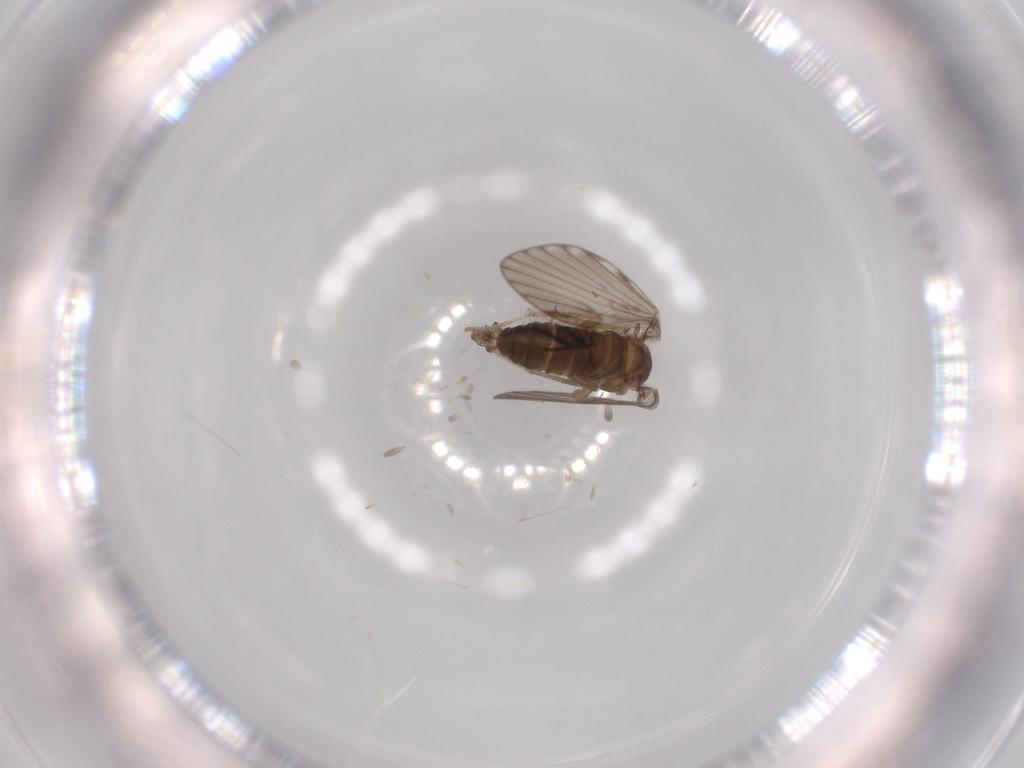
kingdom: Animalia
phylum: Arthropoda
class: Insecta
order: Diptera
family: Psychodidae
